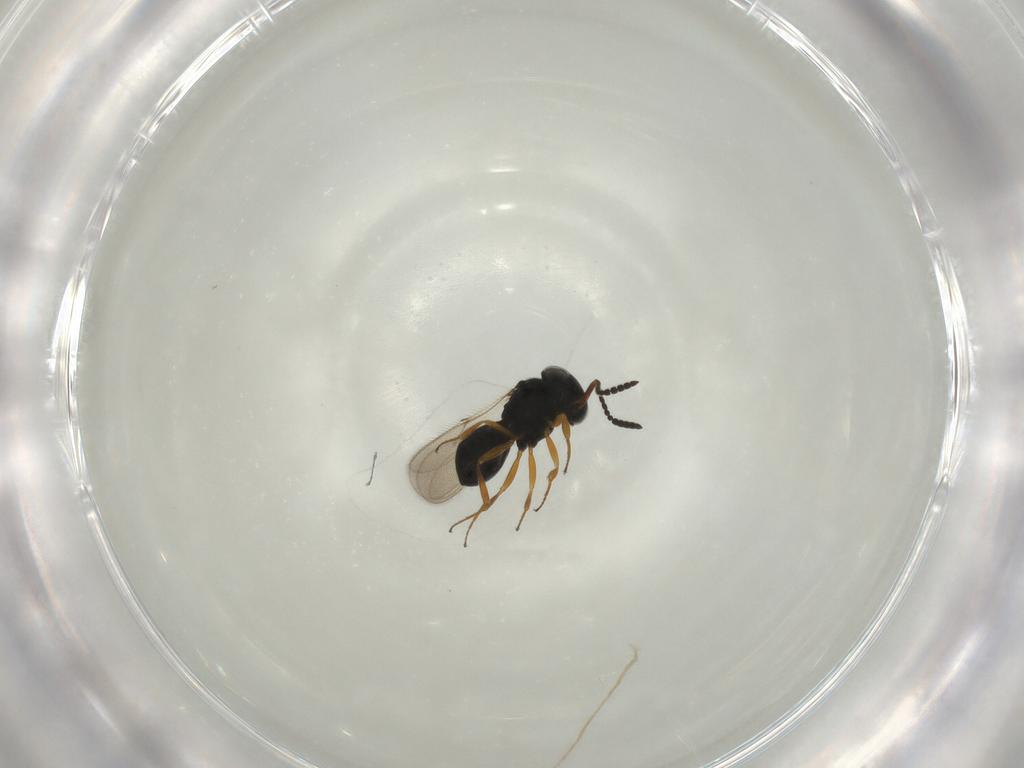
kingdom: Animalia
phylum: Arthropoda
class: Insecta
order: Hymenoptera
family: Scelionidae
